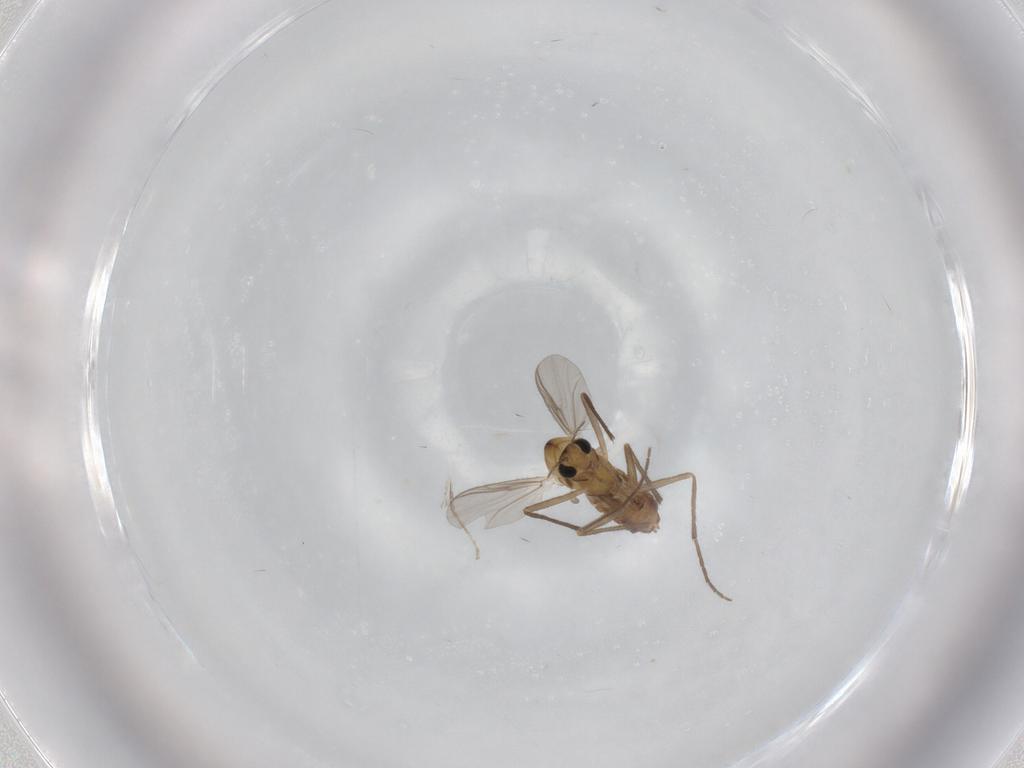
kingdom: Animalia
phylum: Arthropoda
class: Insecta
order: Diptera
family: Chironomidae
